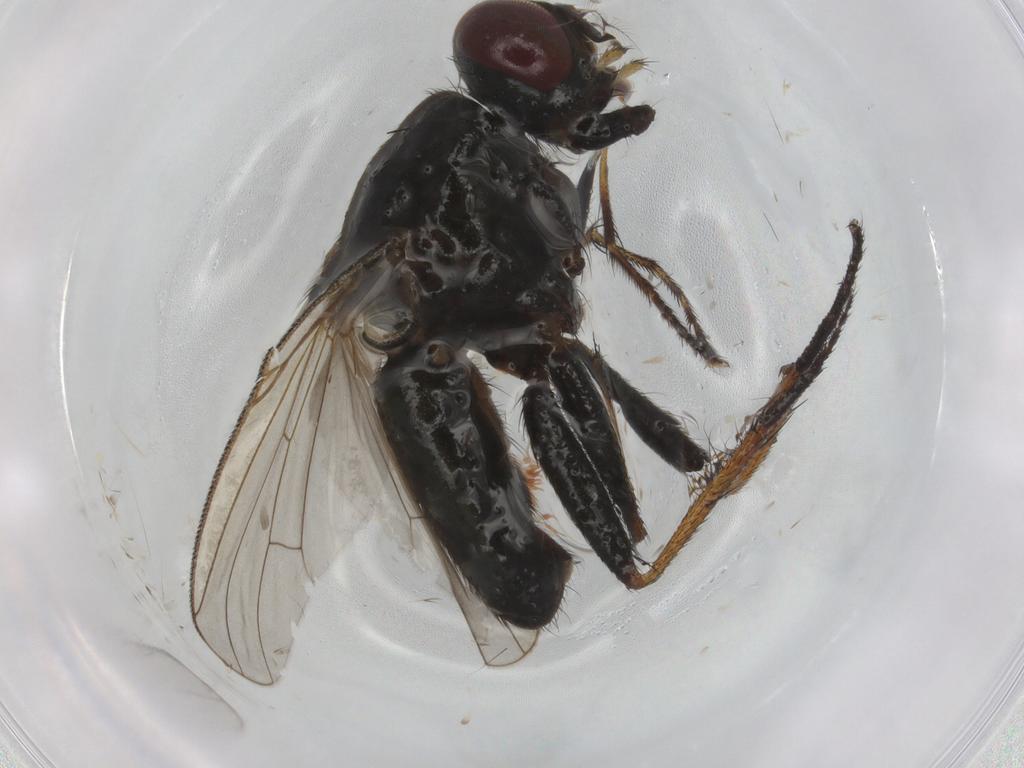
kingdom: Animalia
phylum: Arthropoda
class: Insecta
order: Diptera
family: Muscidae
